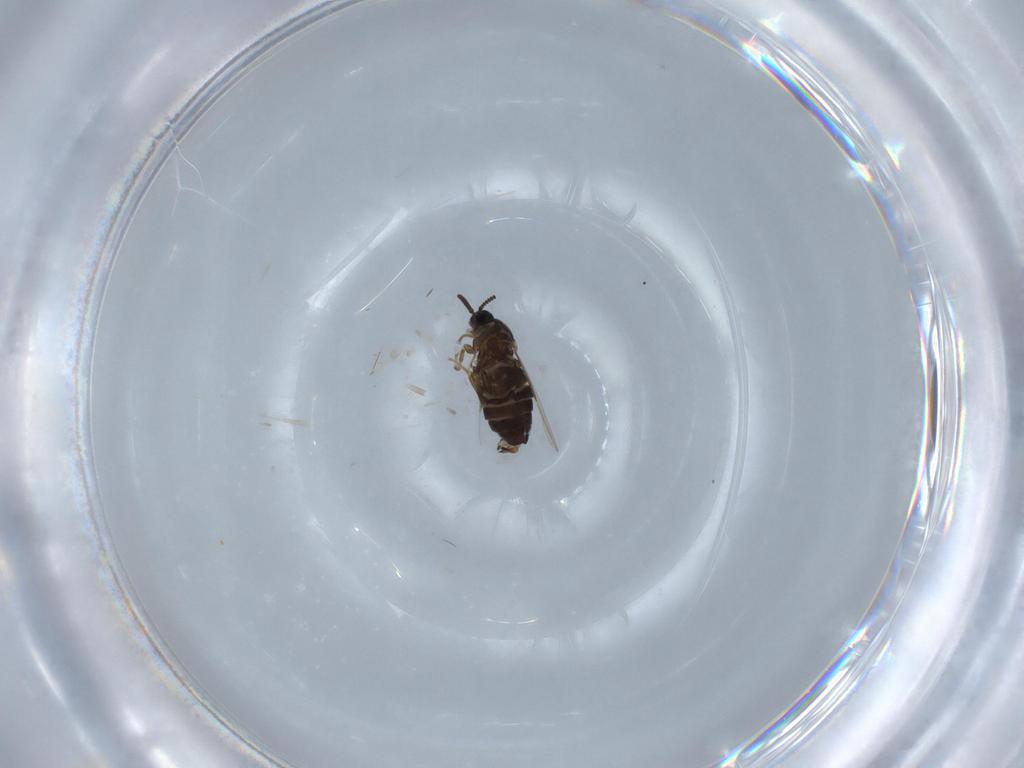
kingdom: Animalia
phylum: Arthropoda
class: Insecta
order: Diptera
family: Scatopsidae
